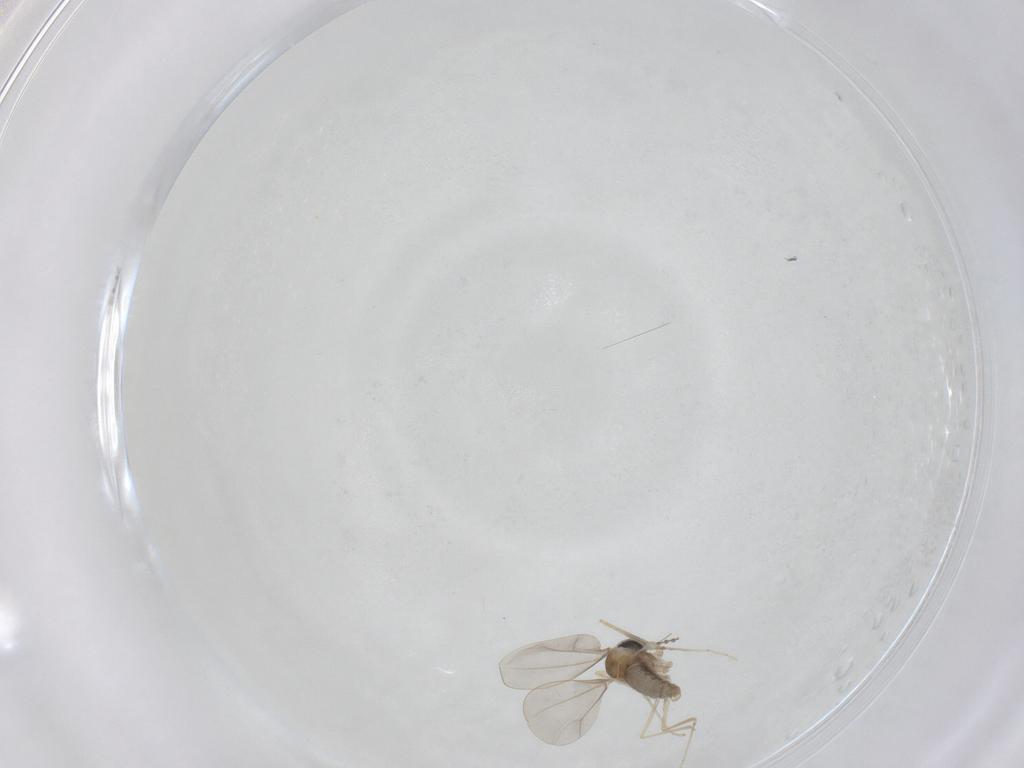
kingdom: Animalia
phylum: Arthropoda
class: Insecta
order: Diptera
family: Cecidomyiidae
